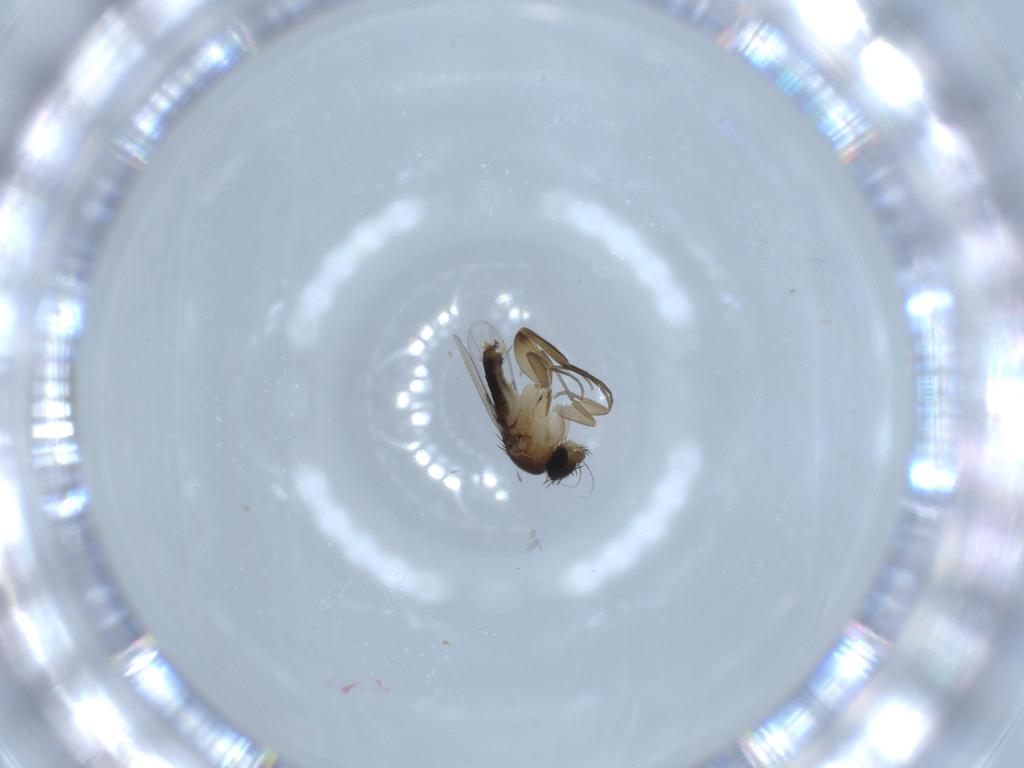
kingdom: Animalia
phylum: Arthropoda
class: Insecta
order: Diptera
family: Phoridae
